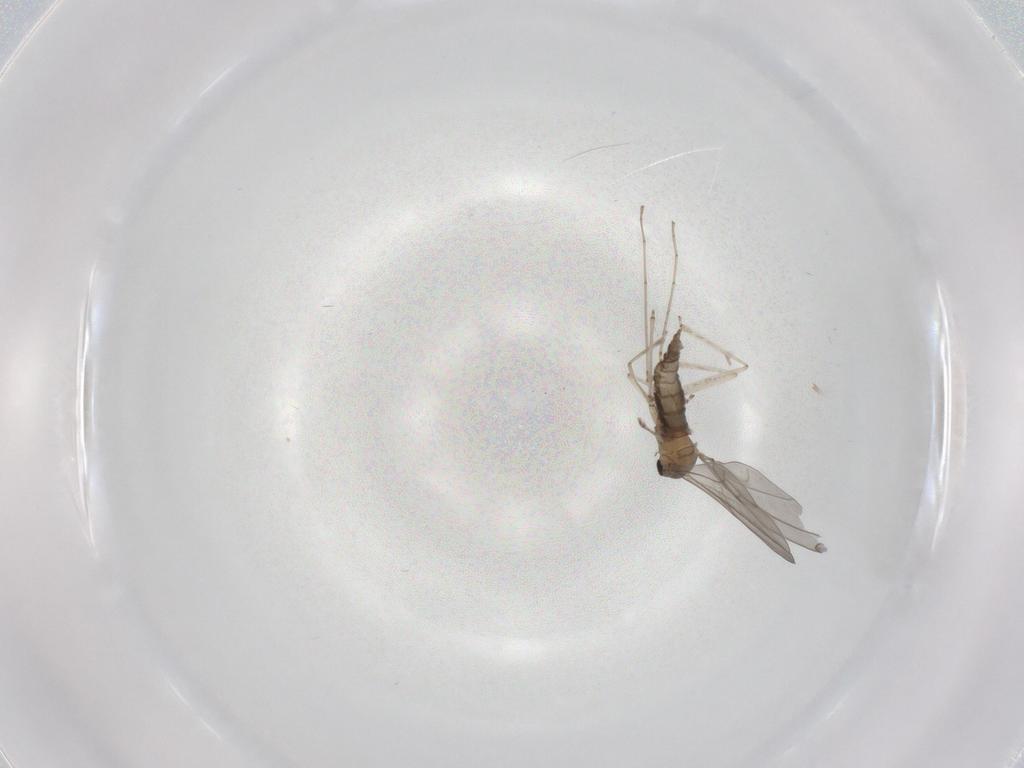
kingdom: Animalia
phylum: Arthropoda
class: Insecta
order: Diptera
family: Cecidomyiidae
